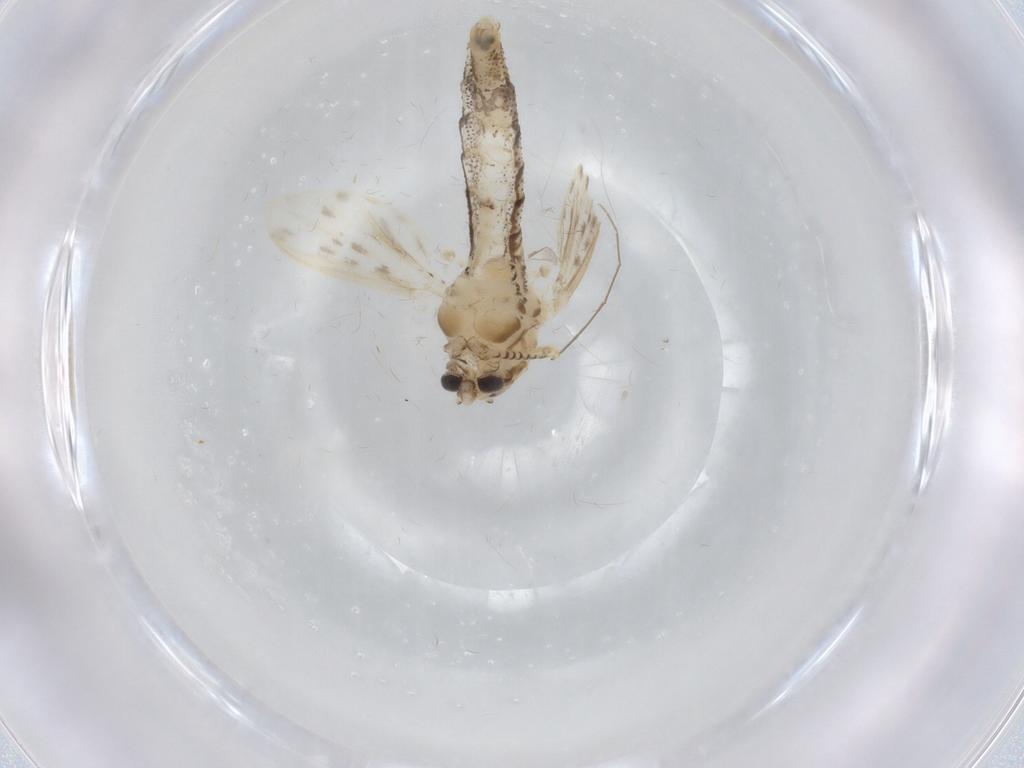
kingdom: Animalia
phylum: Arthropoda
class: Insecta
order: Diptera
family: Chaoboridae
